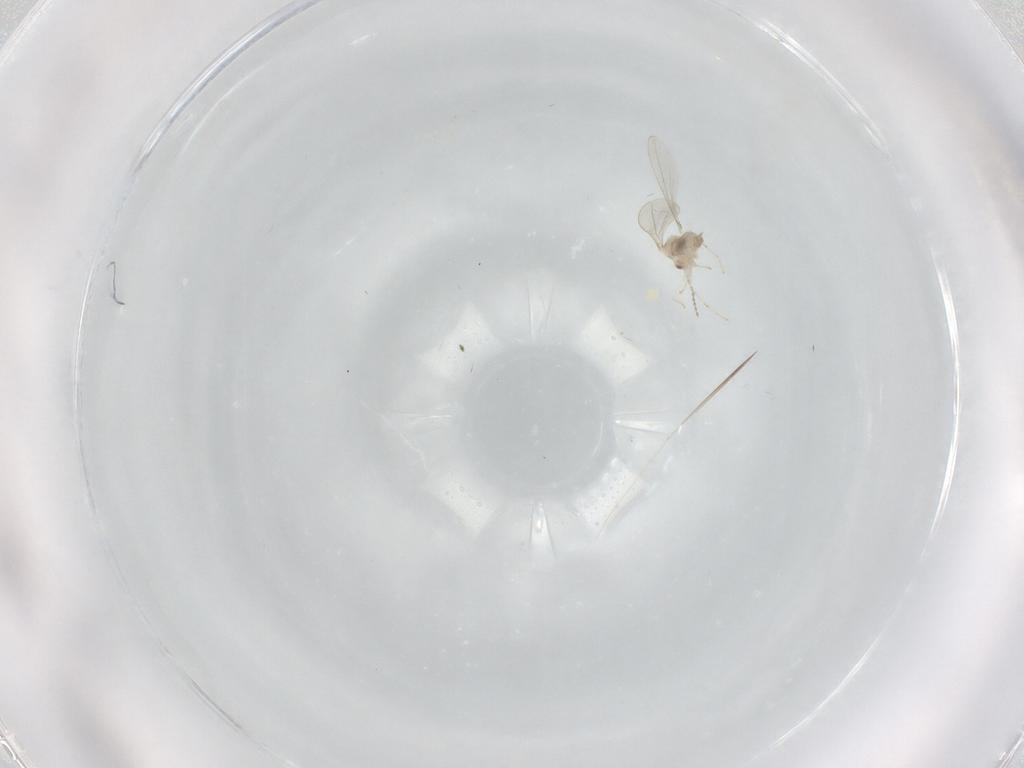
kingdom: Animalia
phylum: Arthropoda
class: Insecta
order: Diptera
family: Cecidomyiidae
